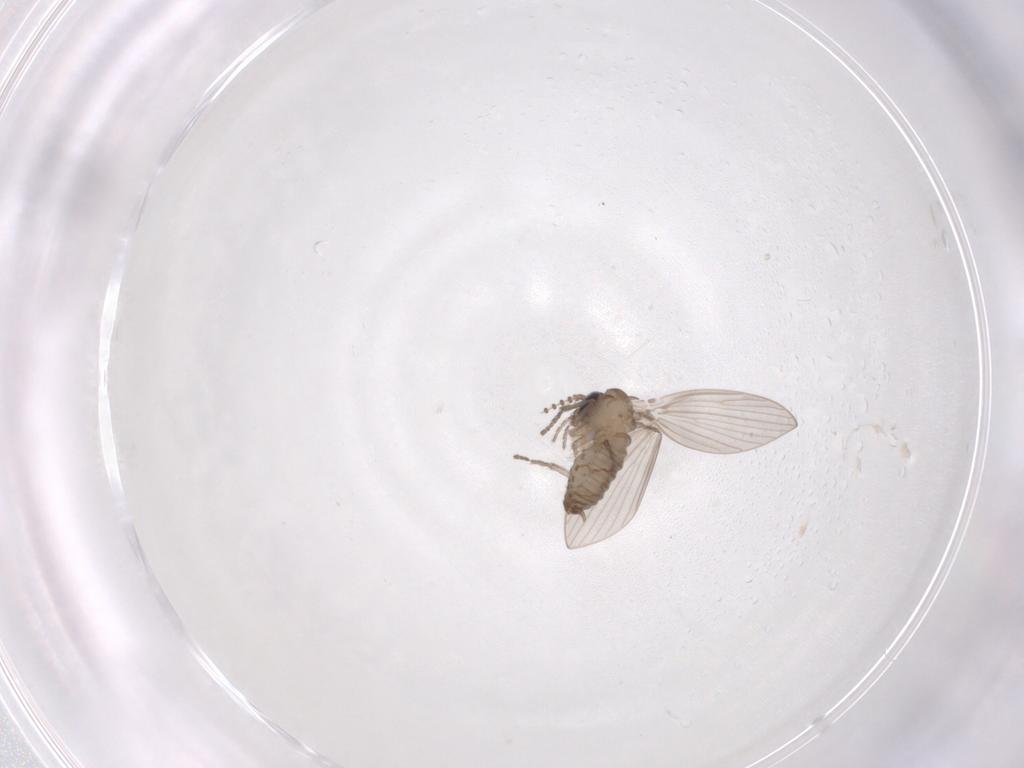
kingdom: Animalia
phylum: Arthropoda
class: Insecta
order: Diptera
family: Psychodidae
